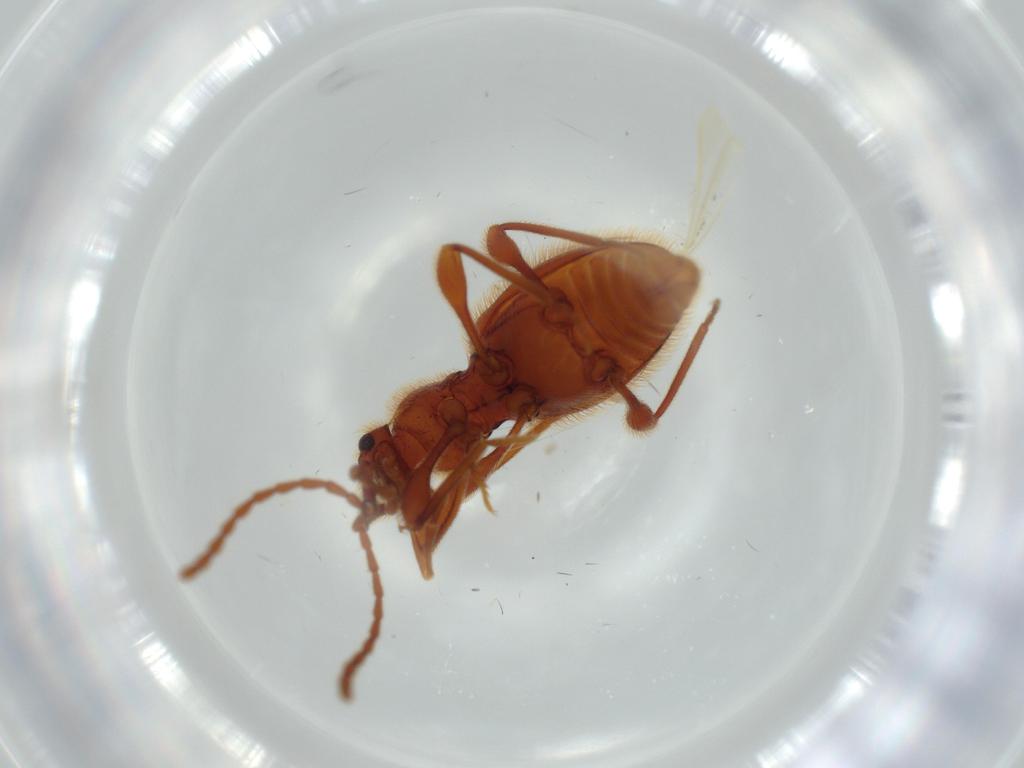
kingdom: Animalia
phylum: Arthropoda
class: Insecta
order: Coleoptera
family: Staphylinidae
